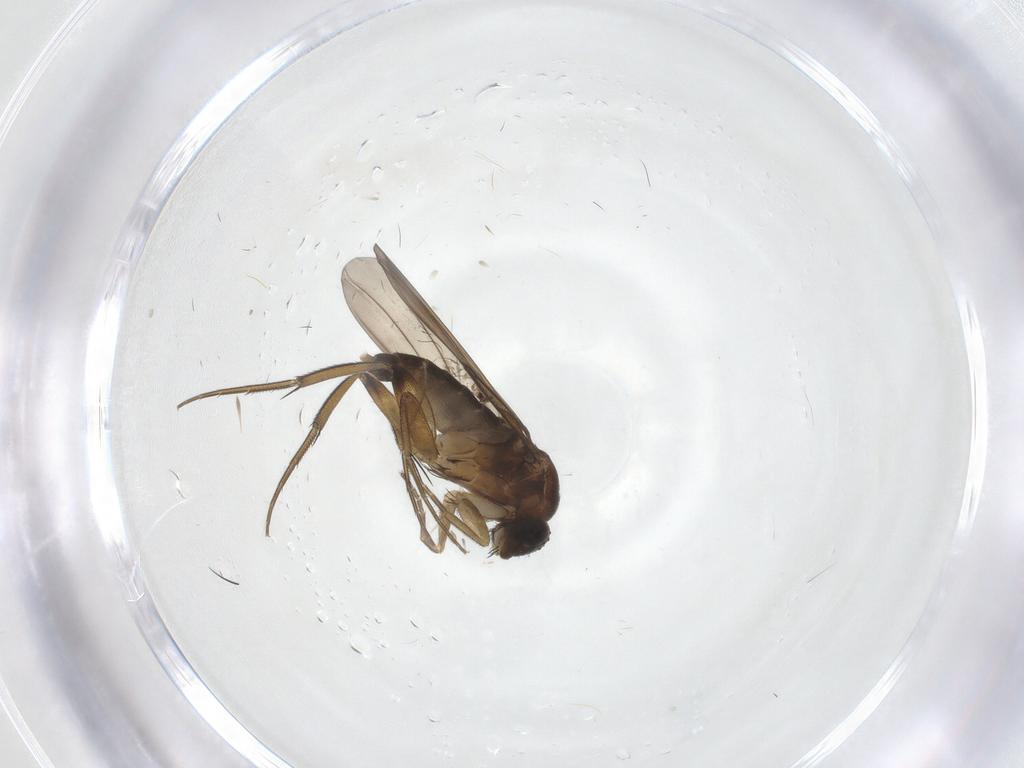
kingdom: Animalia
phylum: Arthropoda
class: Insecta
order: Diptera
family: Phoridae
